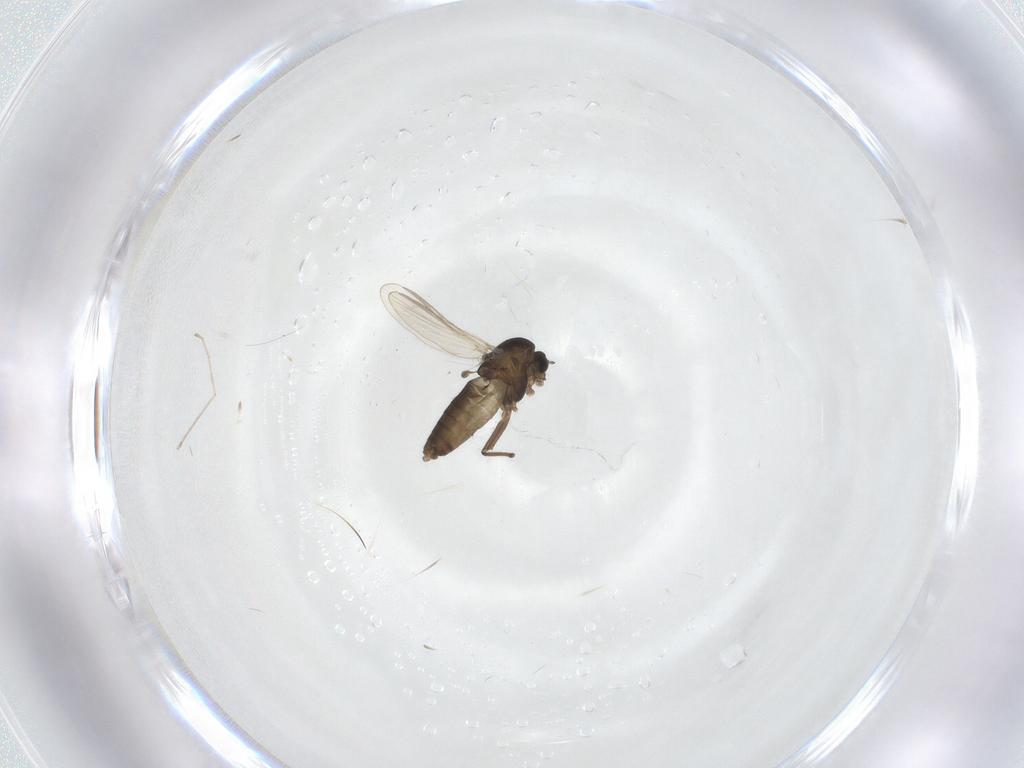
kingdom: Animalia
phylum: Arthropoda
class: Insecta
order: Diptera
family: Chironomidae
